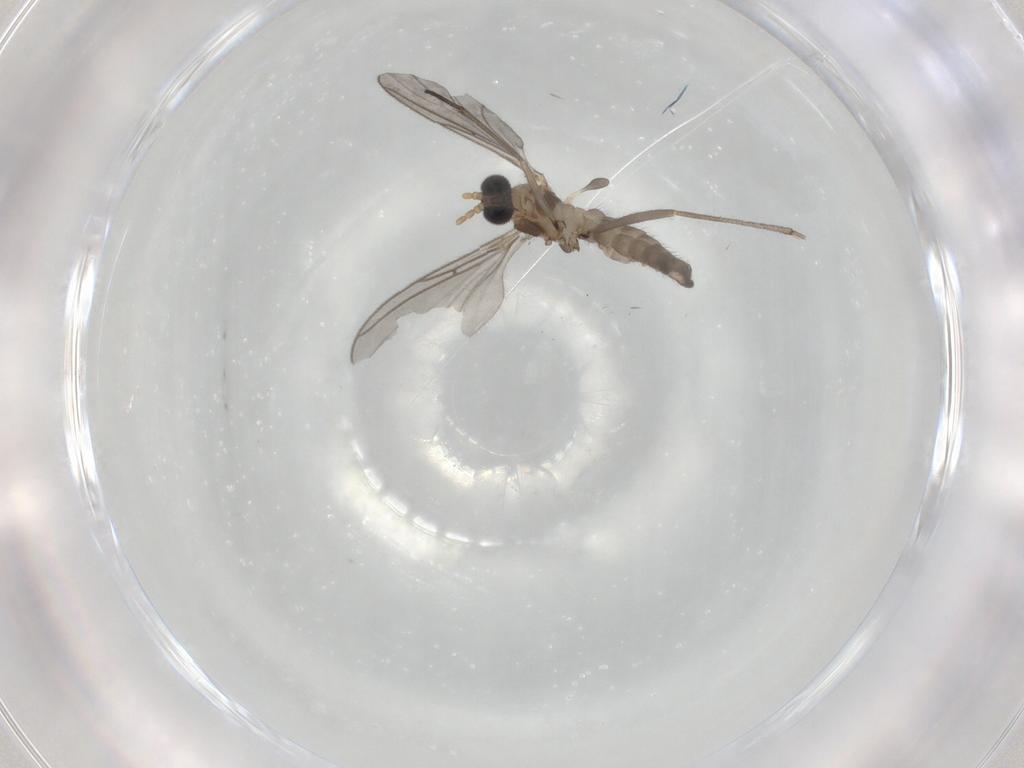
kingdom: Animalia
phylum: Arthropoda
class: Insecta
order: Diptera
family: Sciaridae
